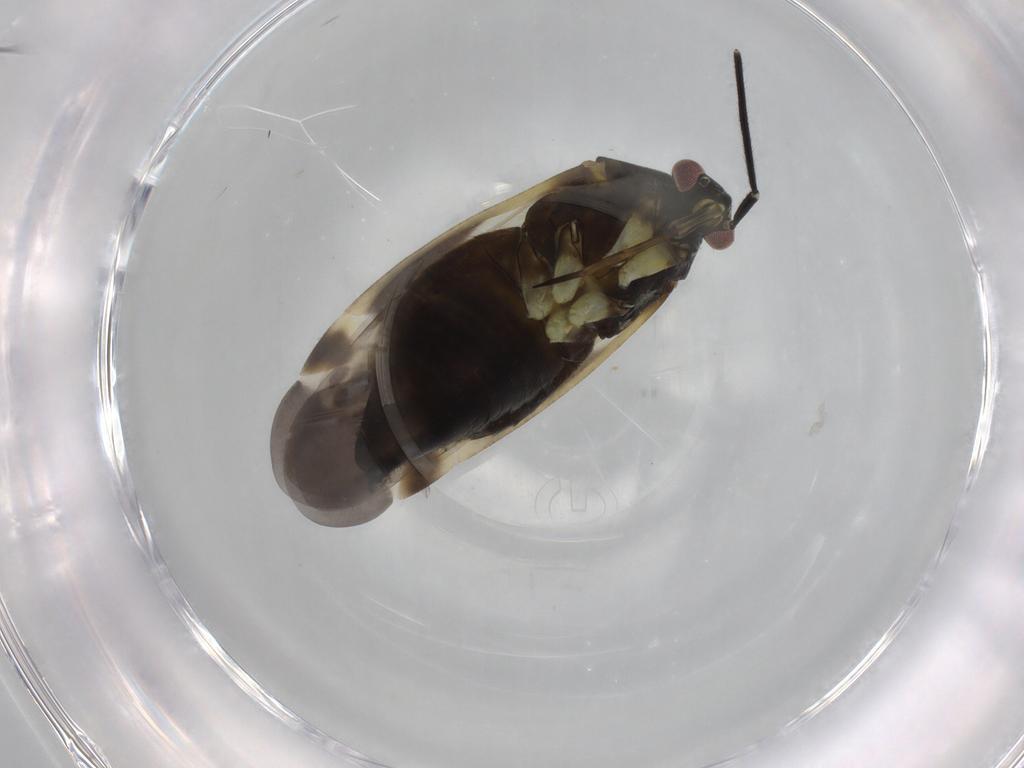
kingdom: Animalia
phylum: Arthropoda
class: Insecta
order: Hemiptera
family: Miridae
